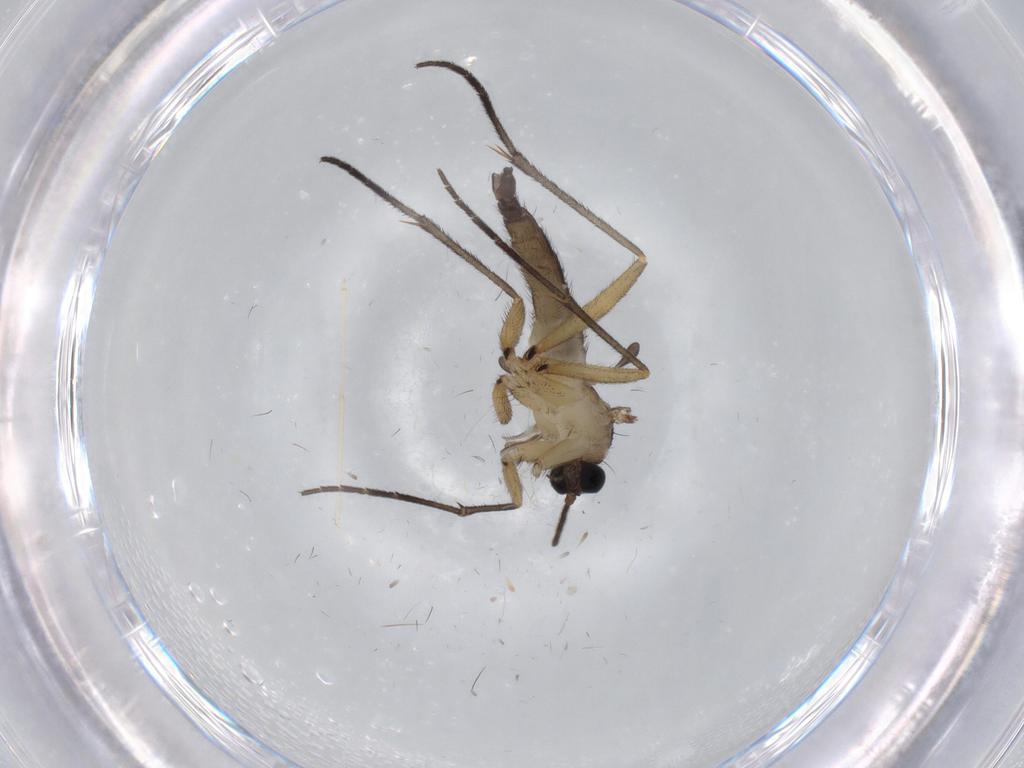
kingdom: Animalia
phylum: Arthropoda
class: Insecta
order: Diptera
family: Sciaridae
